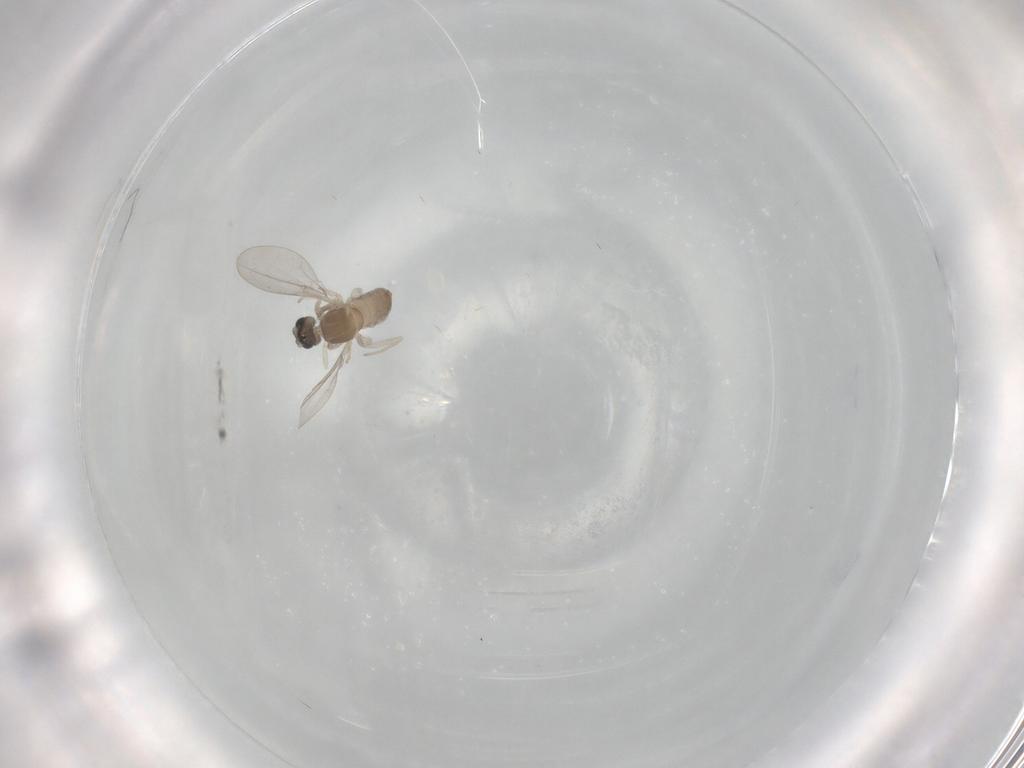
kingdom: Animalia
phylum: Arthropoda
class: Insecta
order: Diptera
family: Cecidomyiidae
